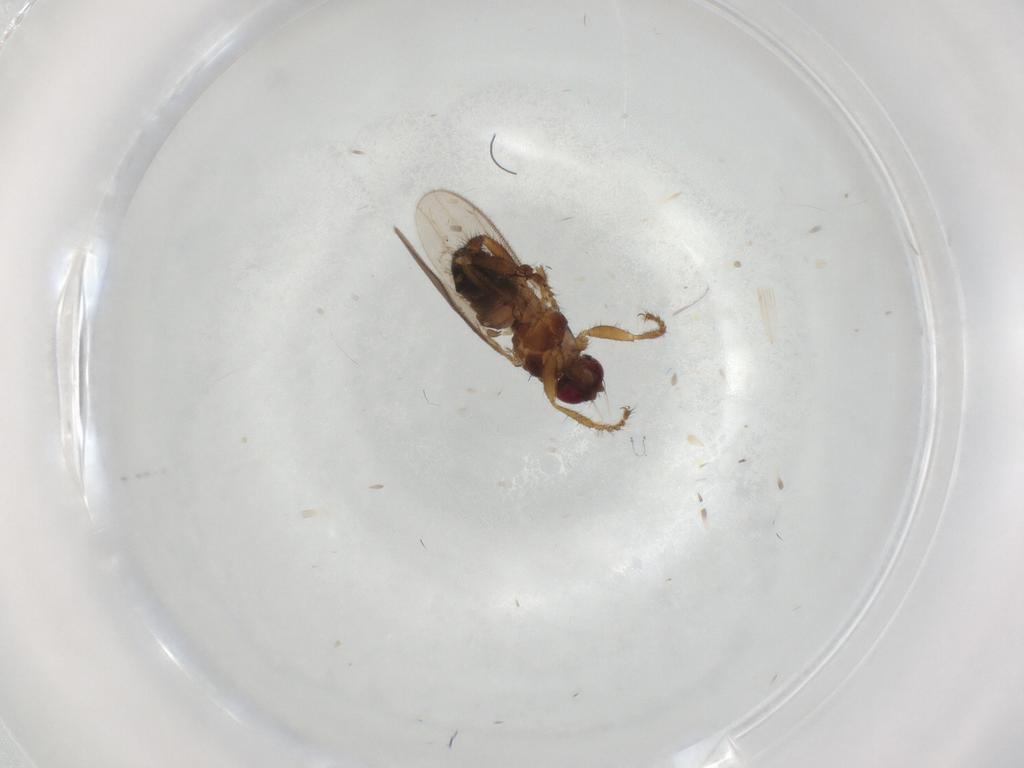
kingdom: Animalia
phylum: Arthropoda
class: Insecta
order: Diptera
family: Sphaeroceridae
